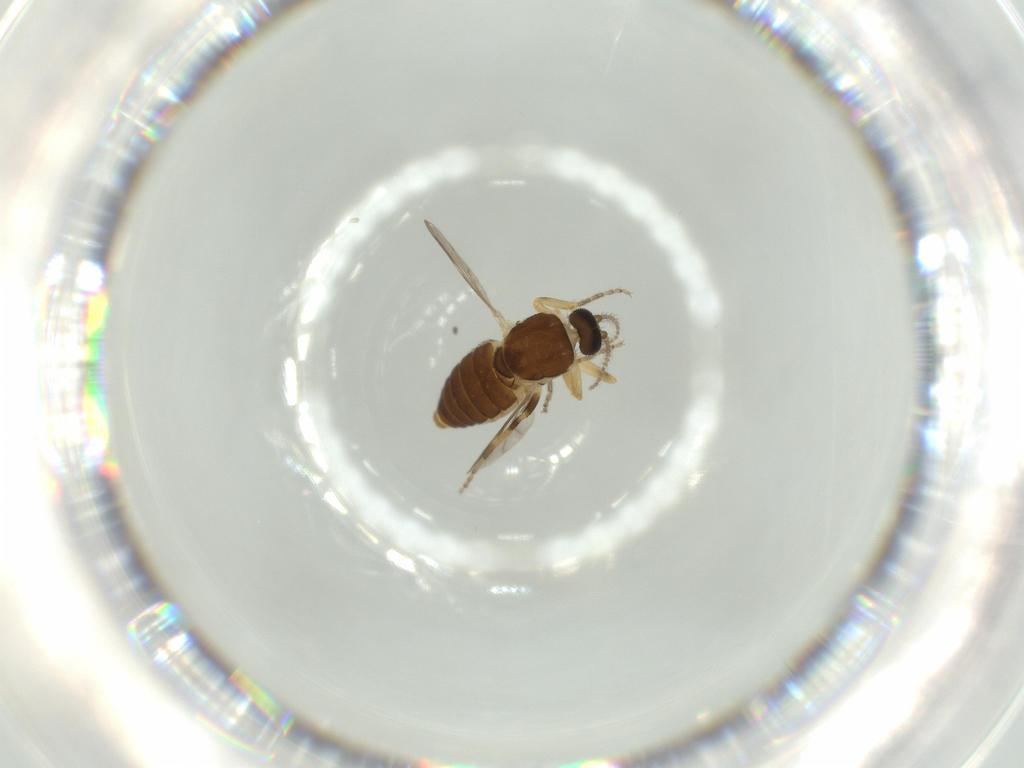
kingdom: Animalia
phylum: Arthropoda
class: Insecta
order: Diptera
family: Ceratopogonidae
